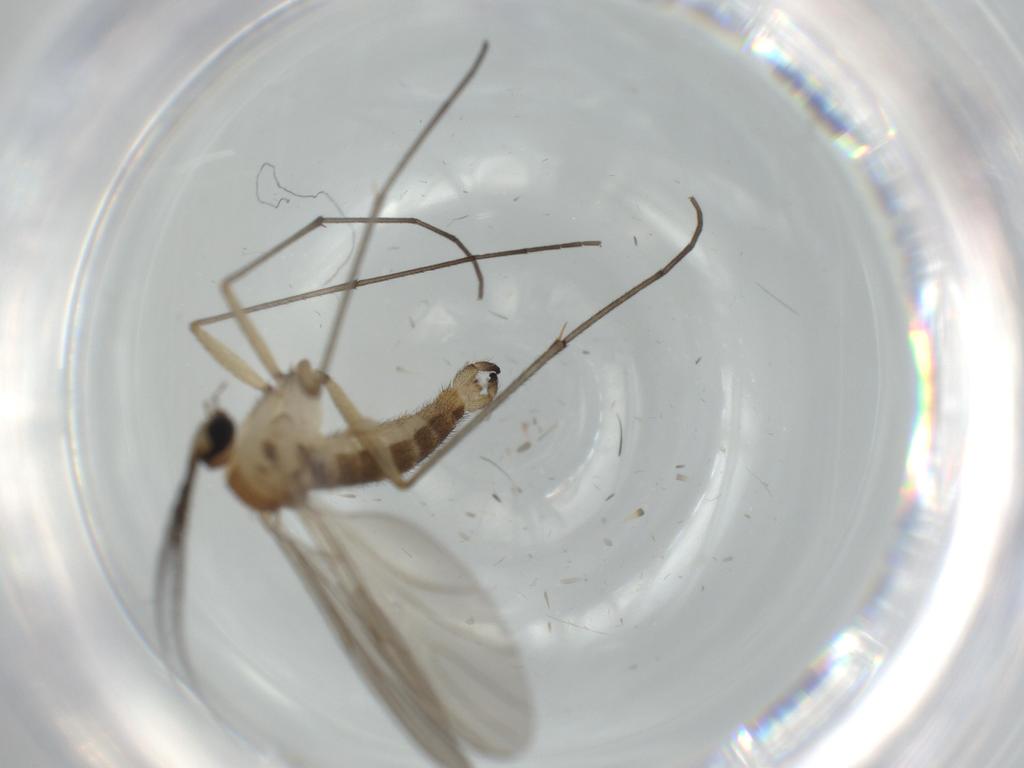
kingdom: Animalia
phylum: Arthropoda
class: Insecta
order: Diptera
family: Sciaridae
